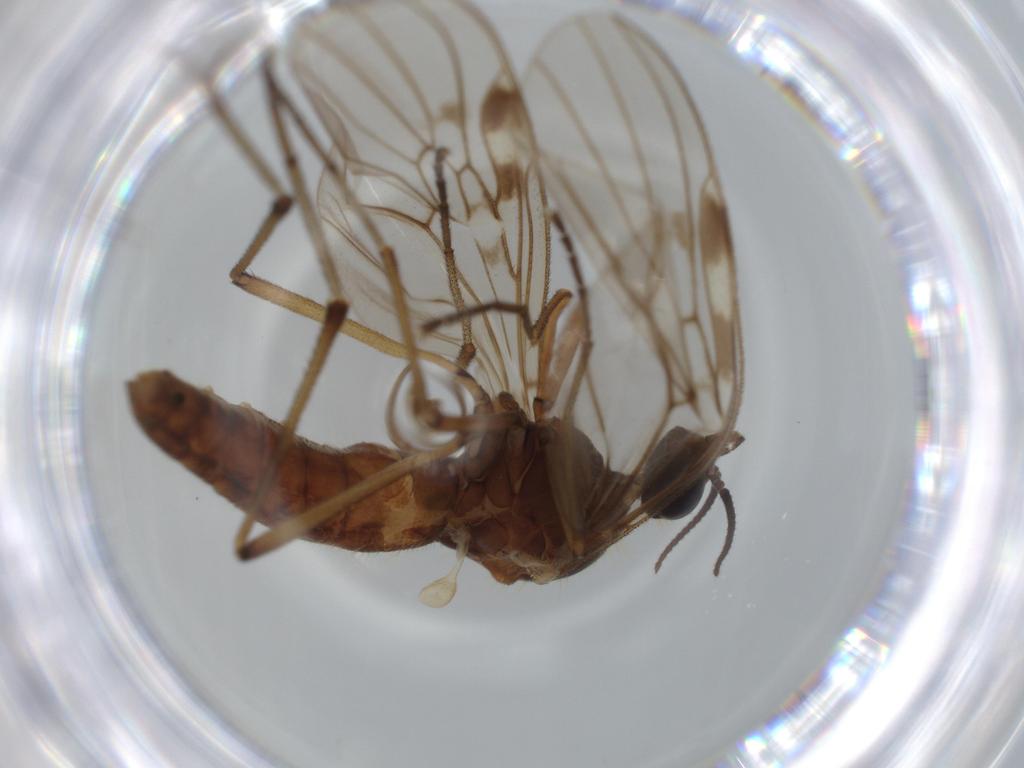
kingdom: Animalia
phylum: Arthropoda
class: Insecta
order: Diptera
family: Anisopodidae
